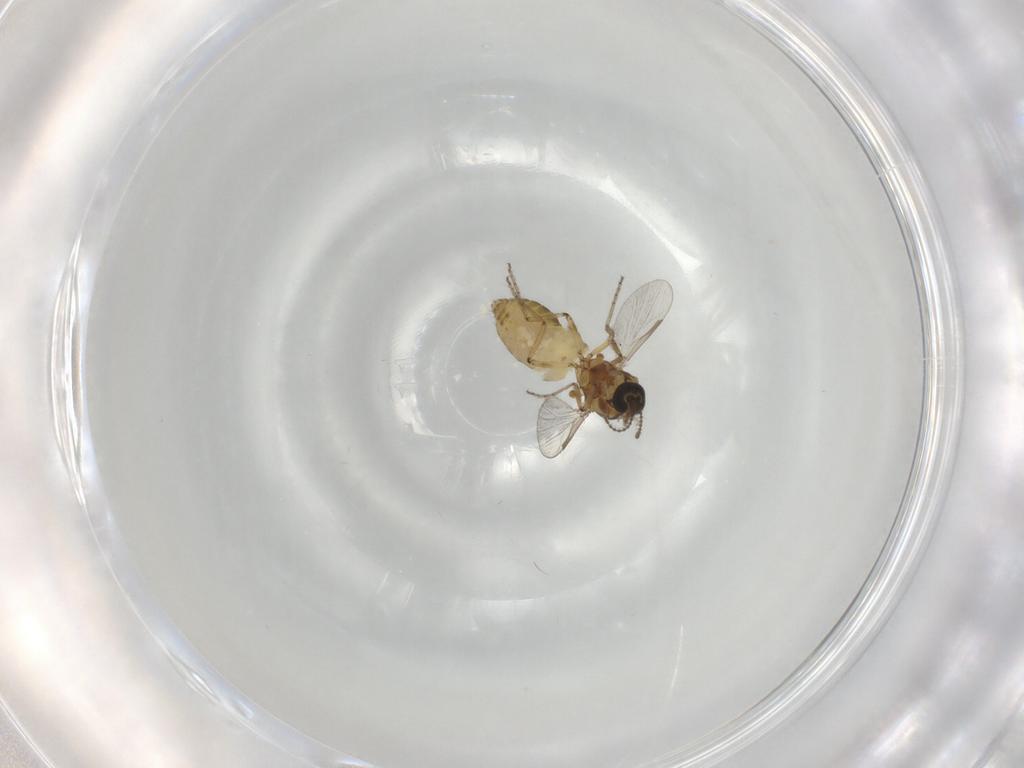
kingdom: Animalia
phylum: Arthropoda
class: Insecta
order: Diptera
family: Ceratopogonidae
